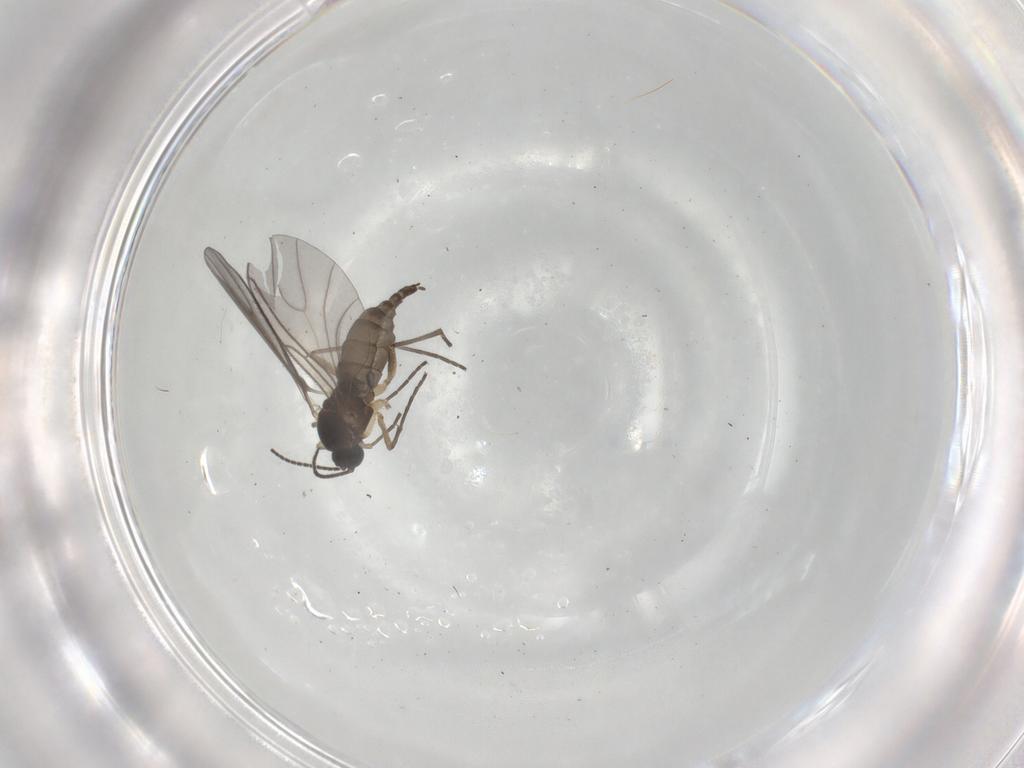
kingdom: Animalia
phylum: Arthropoda
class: Insecta
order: Diptera
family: Sciaridae
